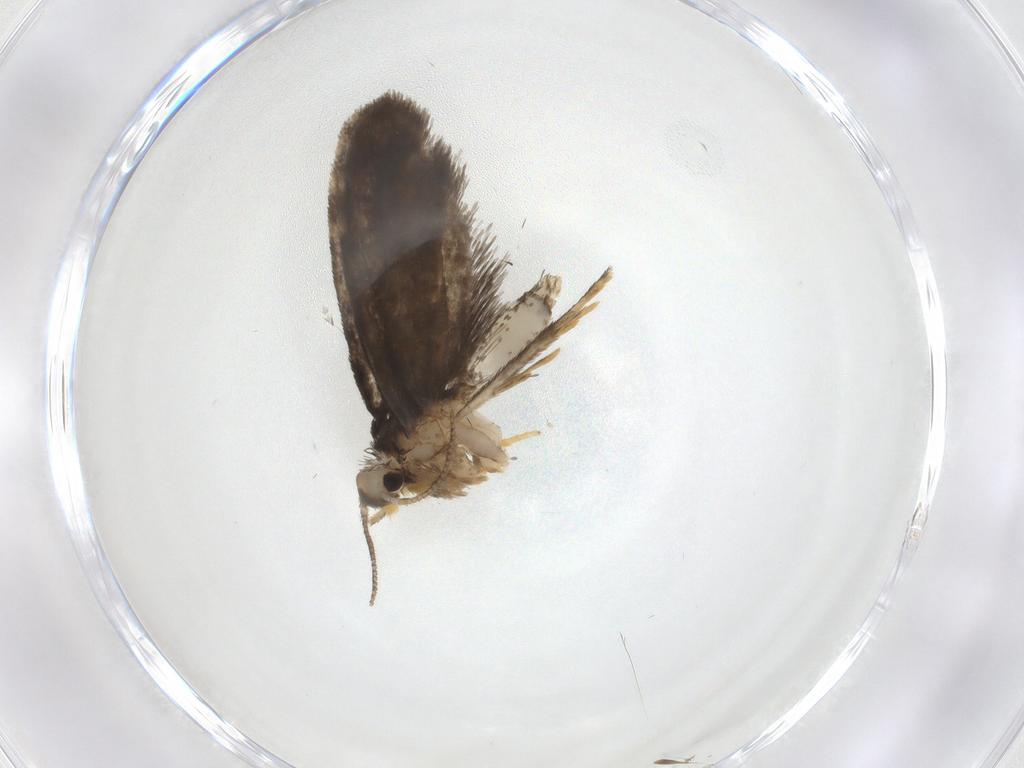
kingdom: Animalia
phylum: Arthropoda
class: Insecta
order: Lepidoptera
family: Psychidae
